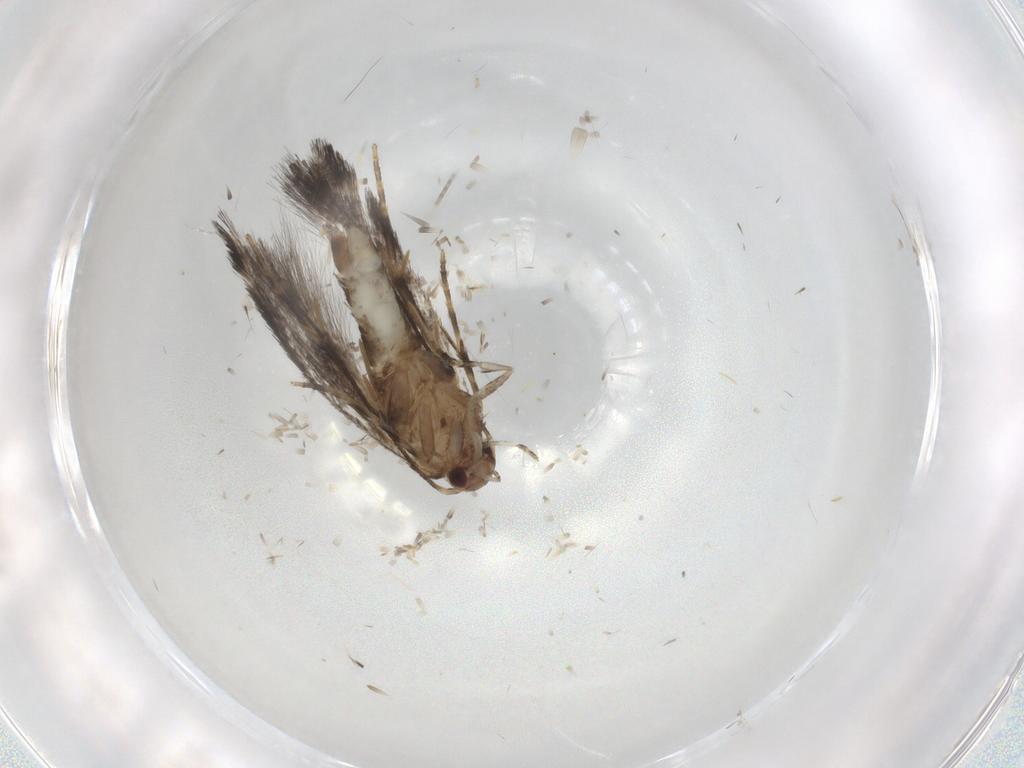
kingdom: Animalia
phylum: Arthropoda
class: Insecta
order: Lepidoptera
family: Elachistidae
